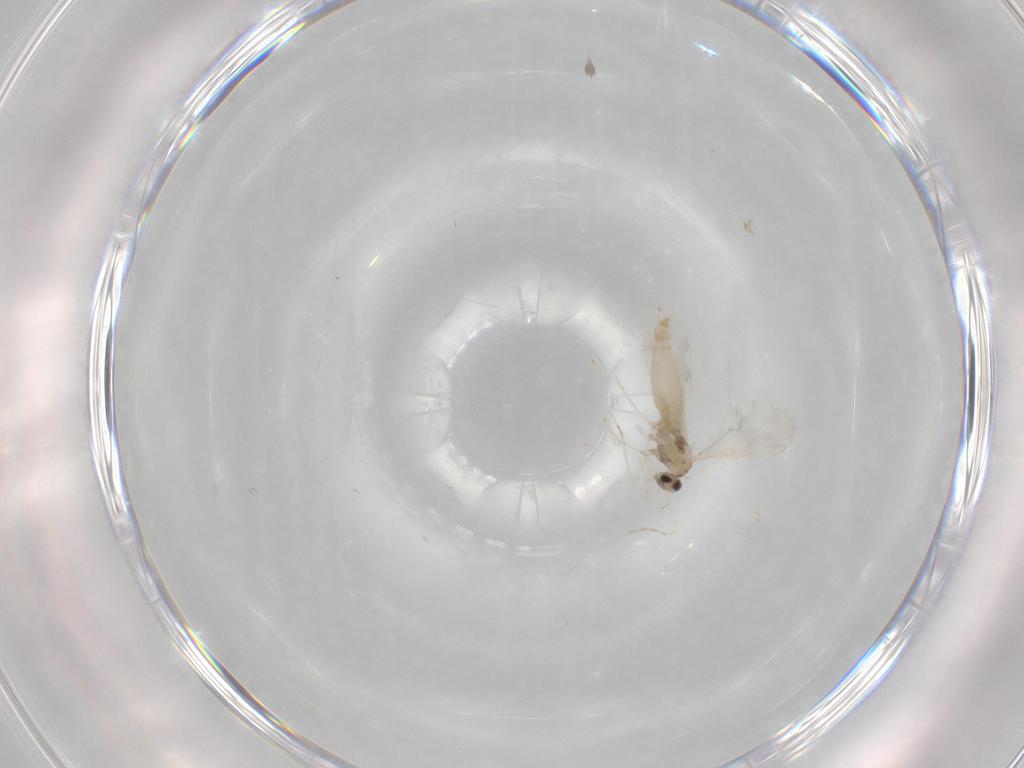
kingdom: Animalia
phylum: Arthropoda
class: Insecta
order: Diptera
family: Cecidomyiidae
